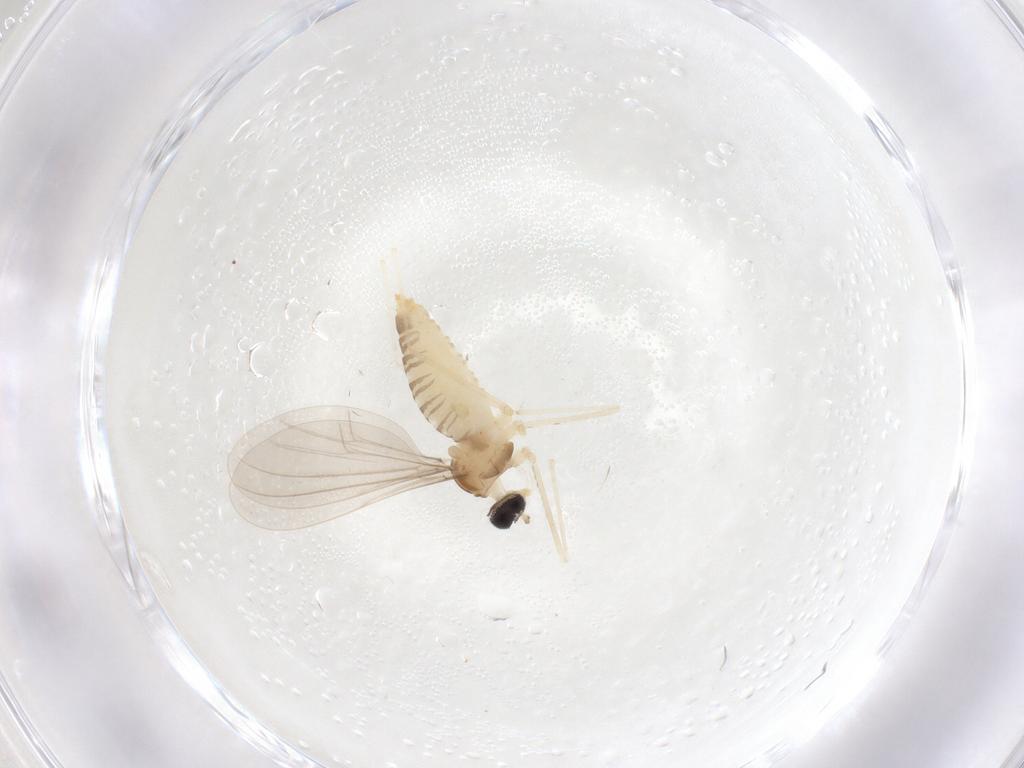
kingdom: Animalia
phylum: Arthropoda
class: Insecta
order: Diptera
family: Cecidomyiidae
